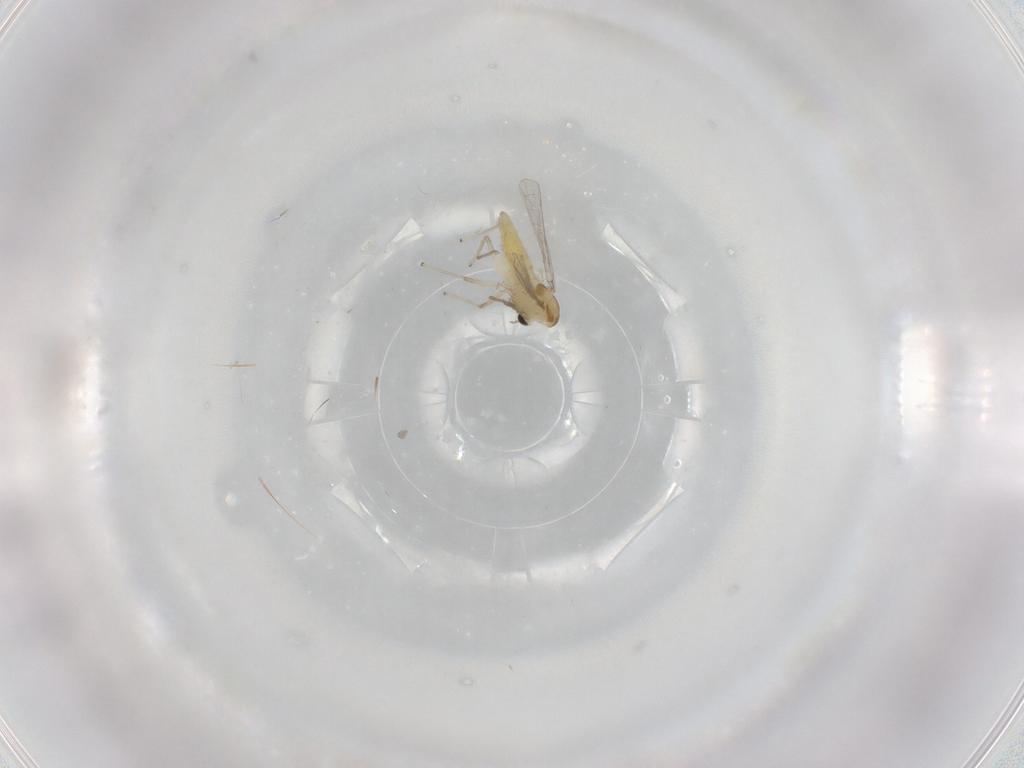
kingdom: Animalia
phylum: Arthropoda
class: Insecta
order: Diptera
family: Chironomidae
